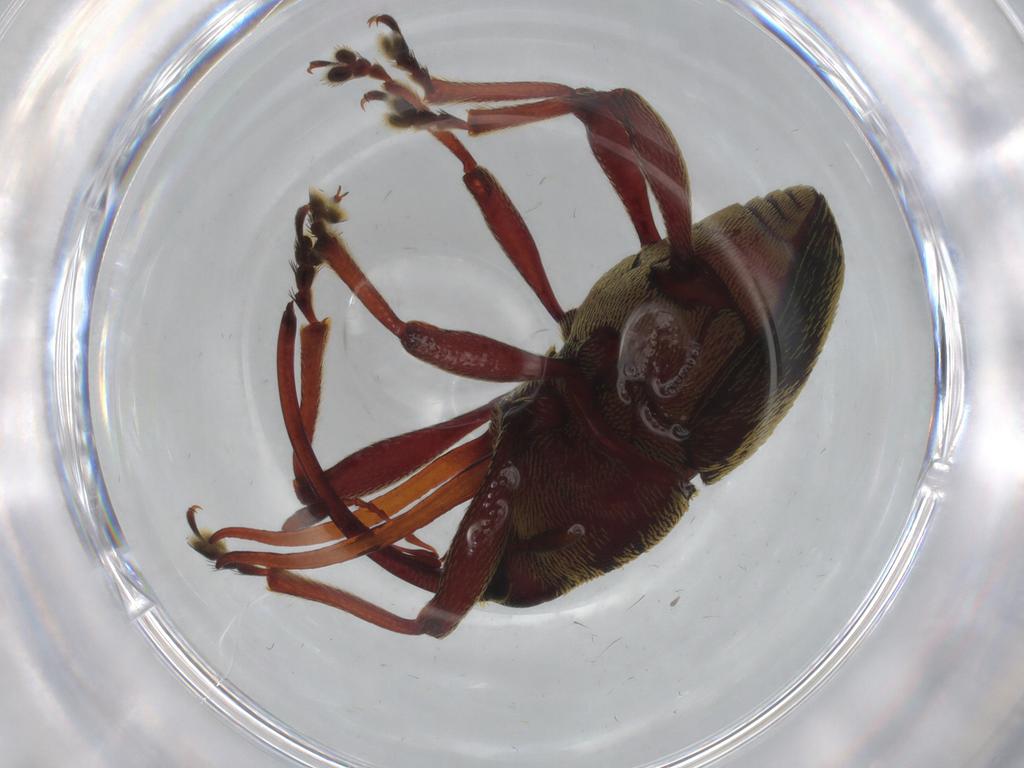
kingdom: Animalia
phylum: Arthropoda
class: Insecta
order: Coleoptera
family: Curculionidae
